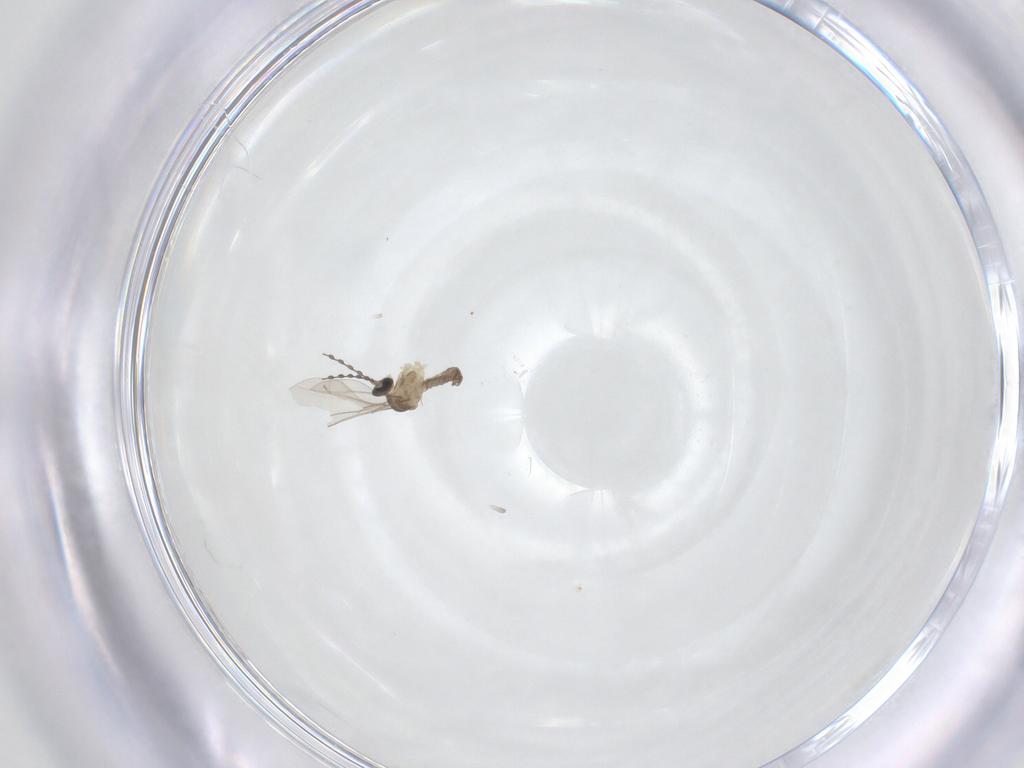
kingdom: Animalia
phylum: Arthropoda
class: Insecta
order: Diptera
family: Cecidomyiidae
